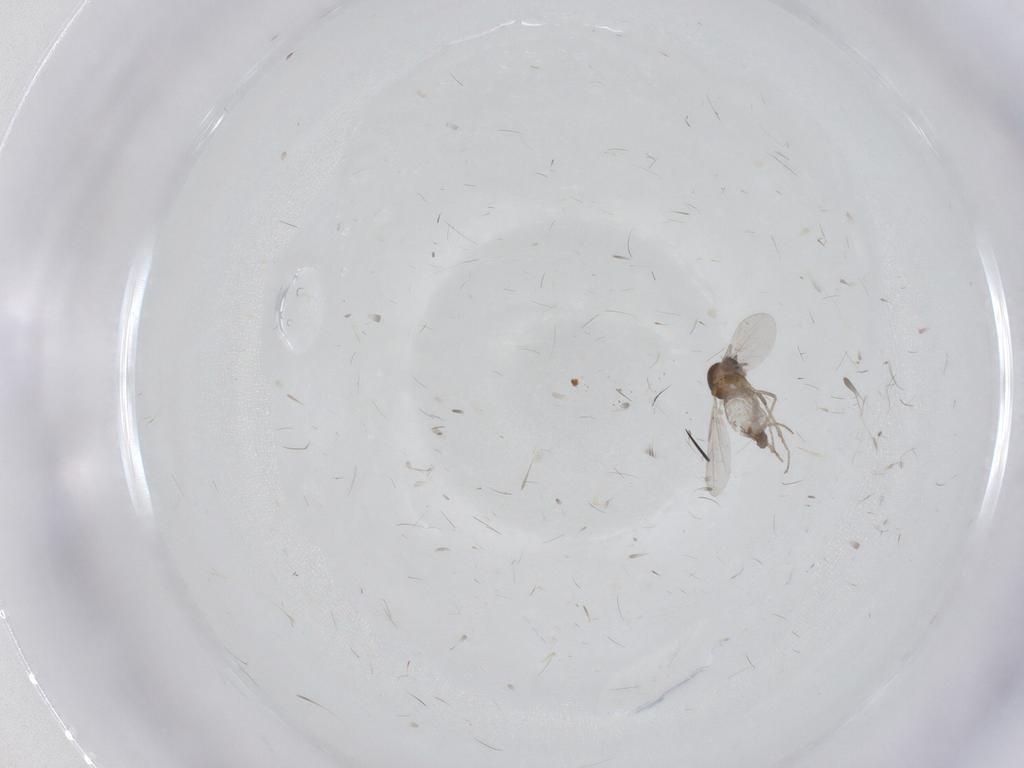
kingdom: Animalia
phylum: Arthropoda
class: Insecta
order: Diptera
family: Cecidomyiidae
